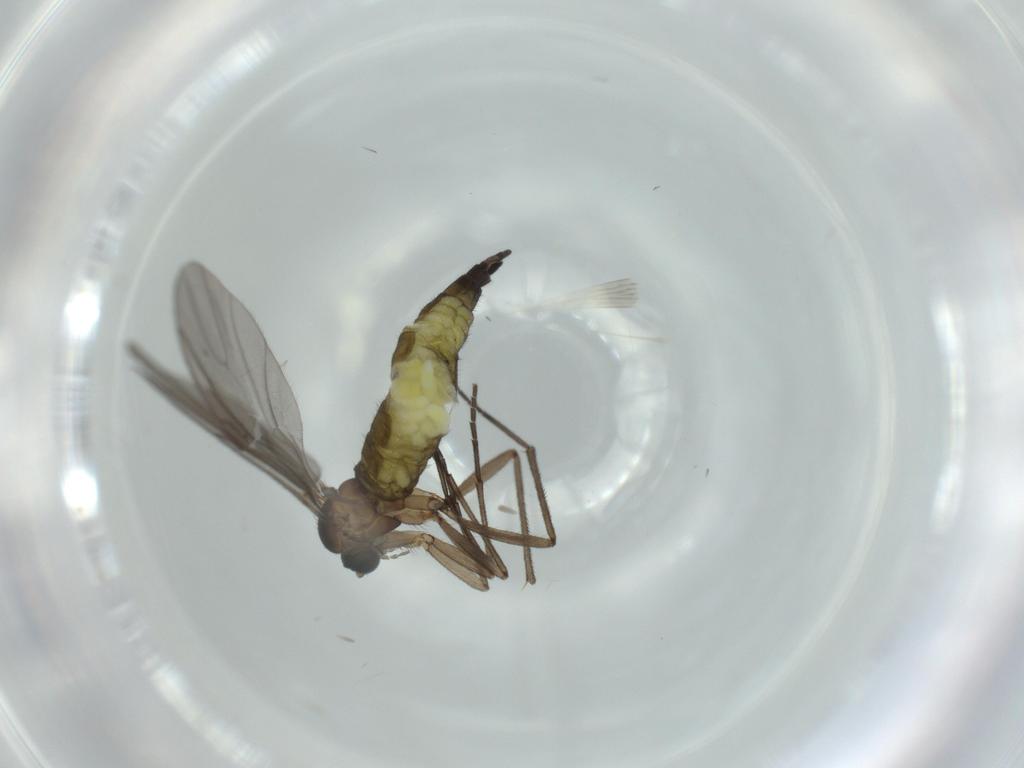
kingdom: Animalia
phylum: Arthropoda
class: Insecta
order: Diptera
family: Sciaridae
